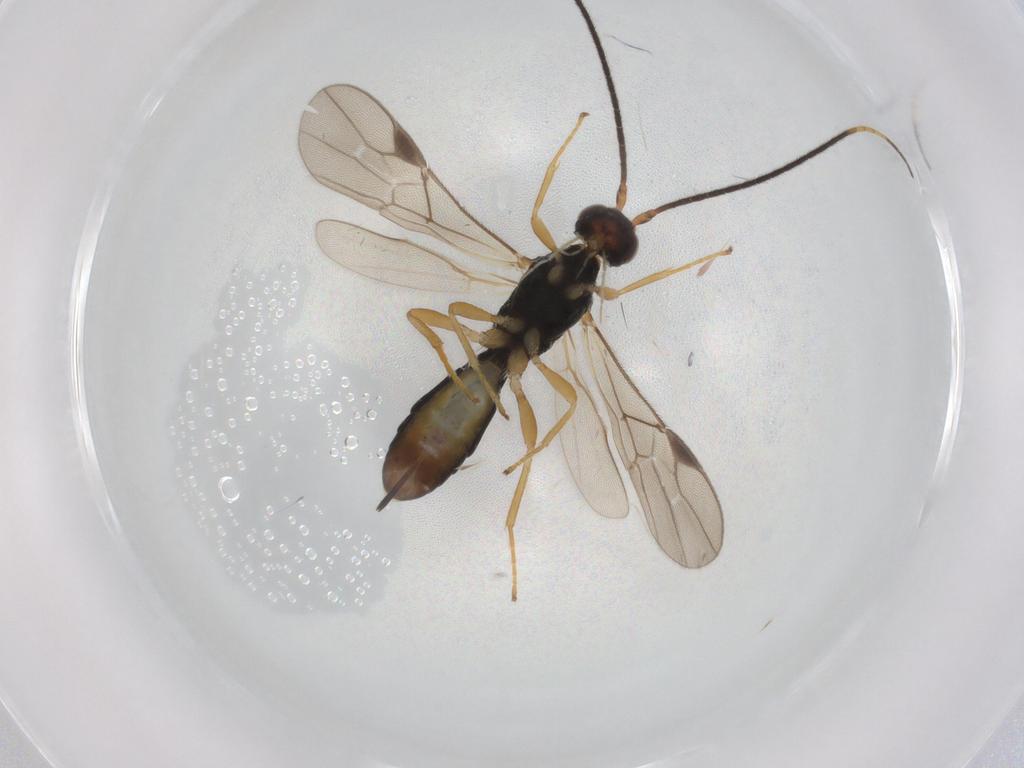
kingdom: Animalia
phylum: Arthropoda
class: Insecta
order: Hymenoptera
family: Braconidae
